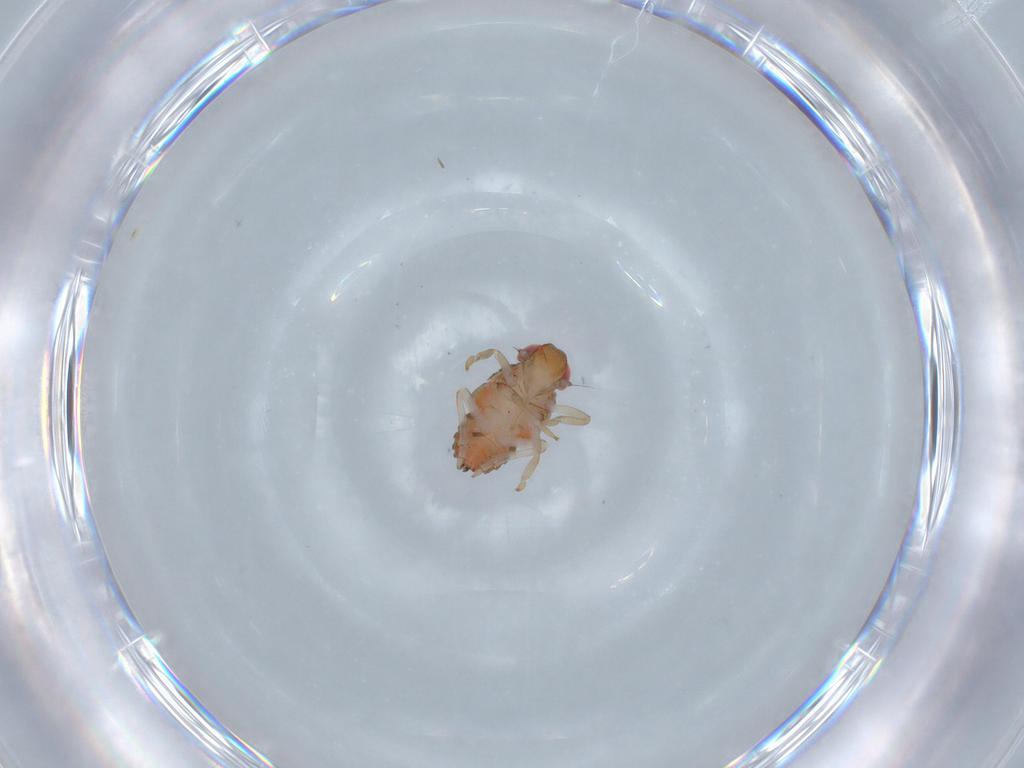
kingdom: Animalia
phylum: Arthropoda
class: Insecta
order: Hemiptera
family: Issidae
